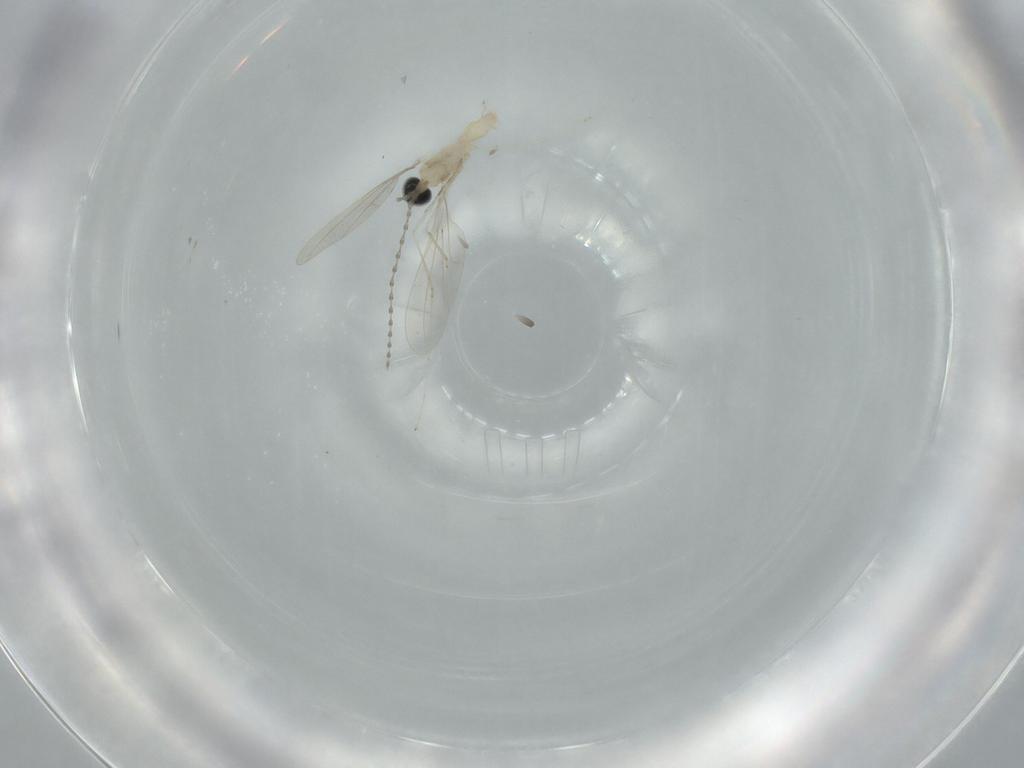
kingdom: Animalia
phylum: Arthropoda
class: Insecta
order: Diptera
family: Cecidomyiidae
